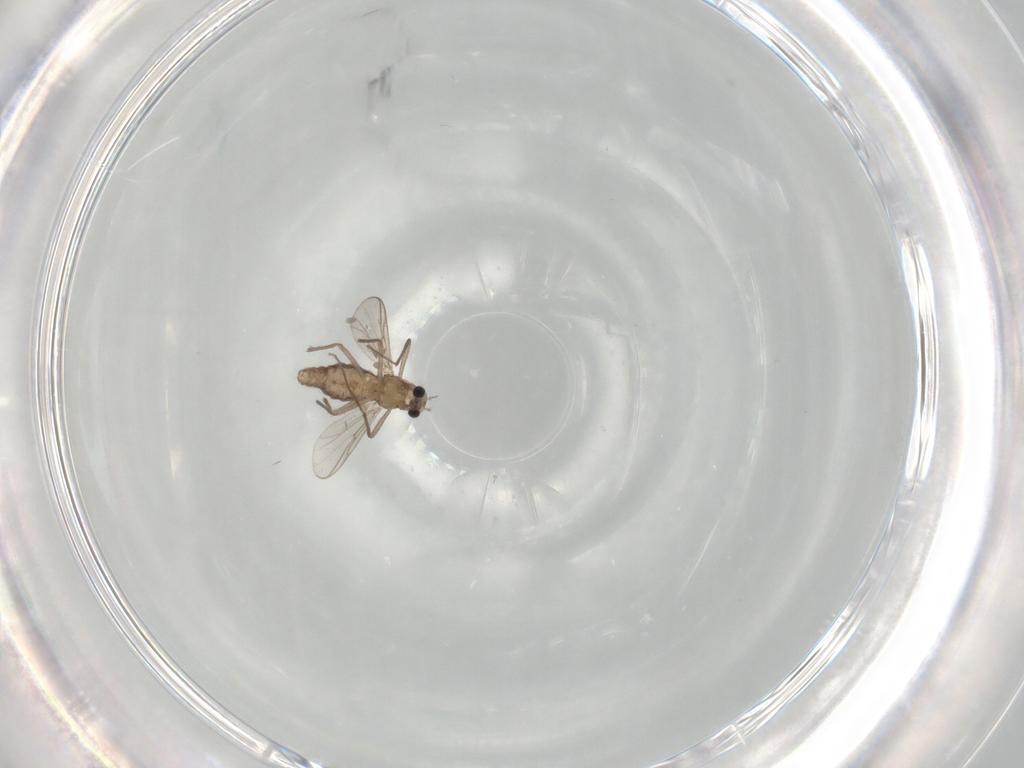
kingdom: Animalia
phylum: Arthropoda
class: Insecta
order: Diptera
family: Chironomidae
